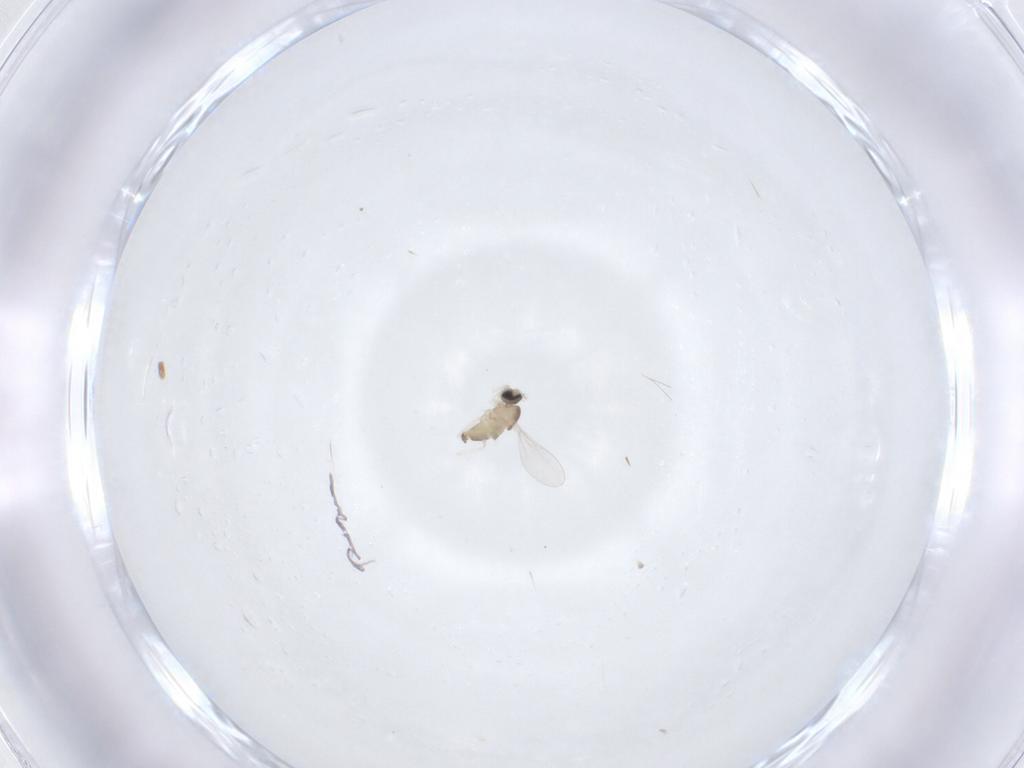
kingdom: Animalia
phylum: Arthropoda
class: Insecta
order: Diptera
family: Cecidomyiidae
